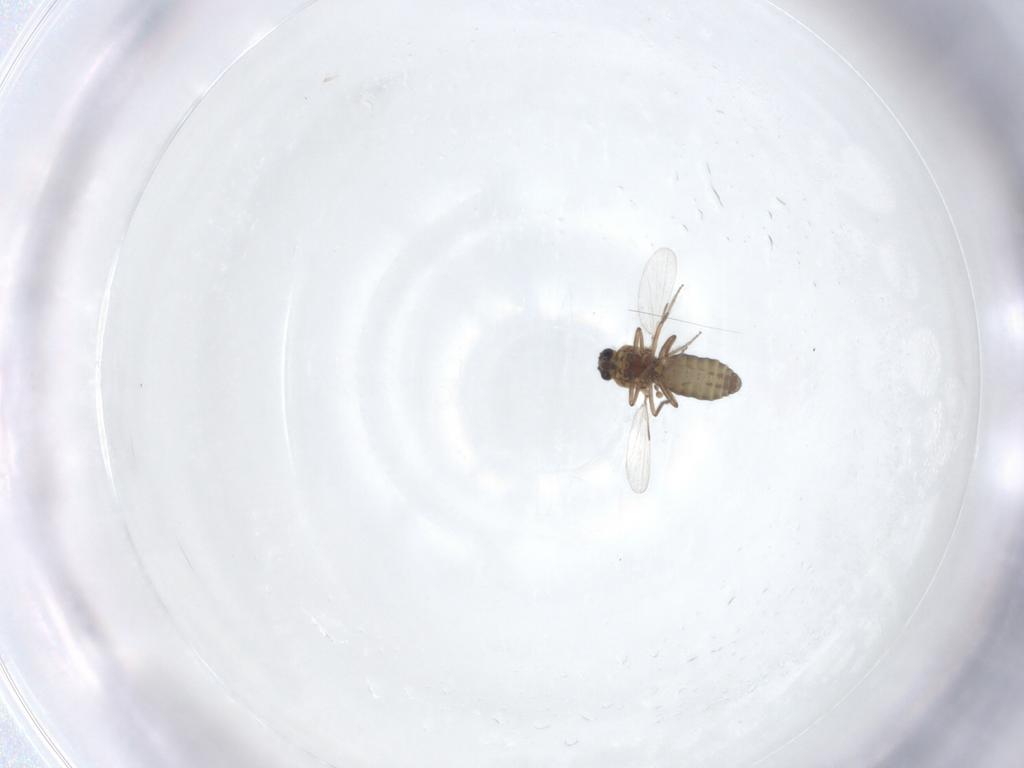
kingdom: Animalia
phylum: Arthropoda
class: Insecta
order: Diptera
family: Ceratopogonidae
